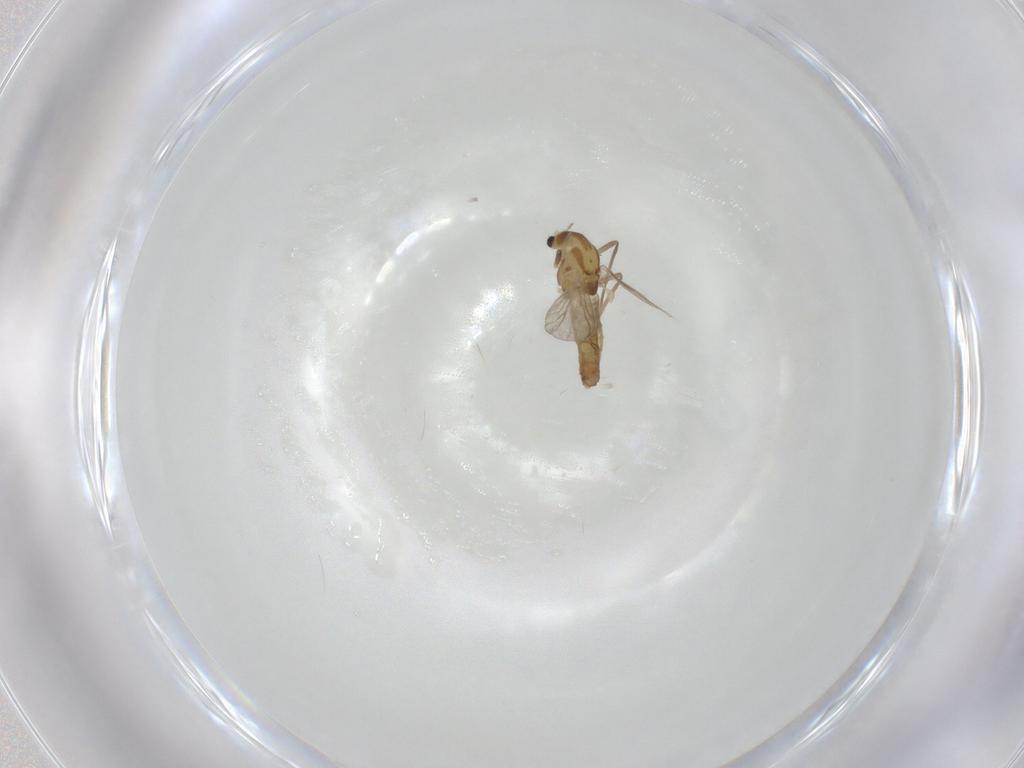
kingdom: Animalia
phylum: Arthropoda
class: Insecta
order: Diptera
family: Chironomidae
